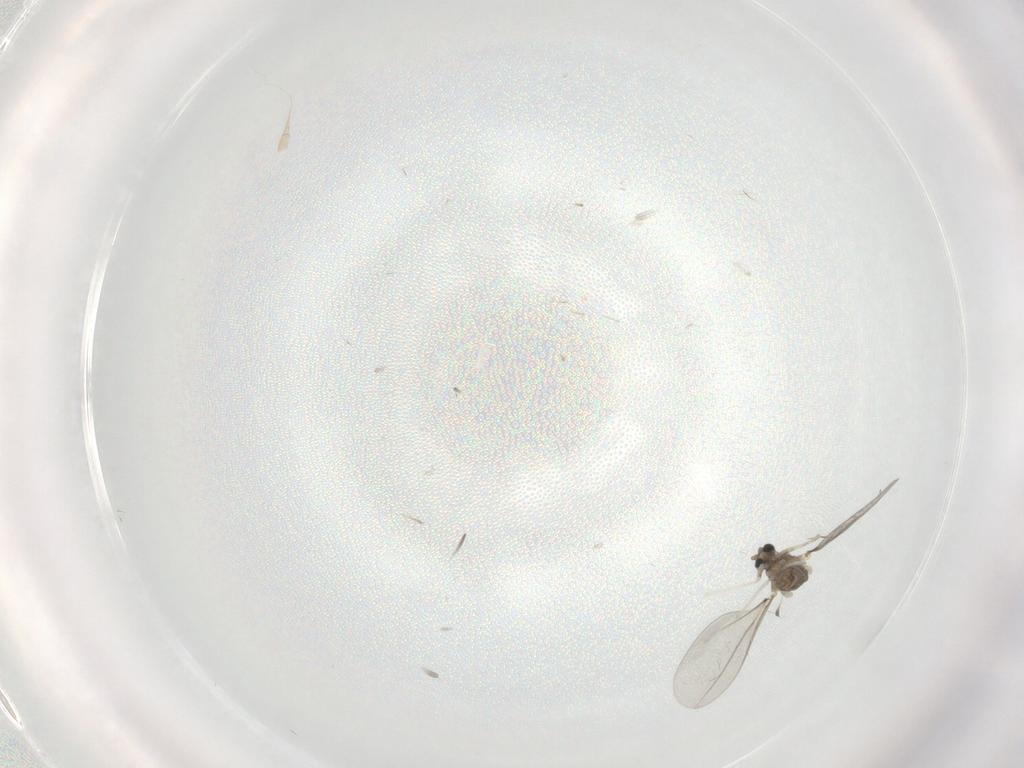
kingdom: Animalia
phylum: Arthropoda
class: Insecta
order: Diptera
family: Cecidomyiidae
